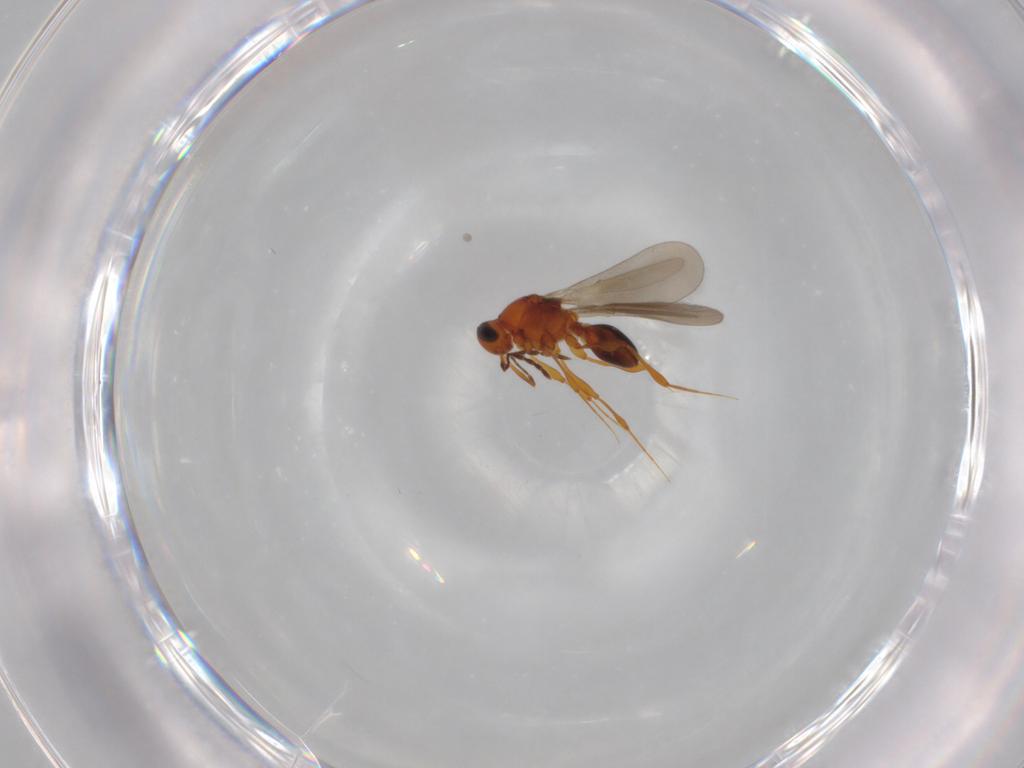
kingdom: Animalia
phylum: Arthropoda
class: Insecta
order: Hymenoptera
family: Platygastridae
